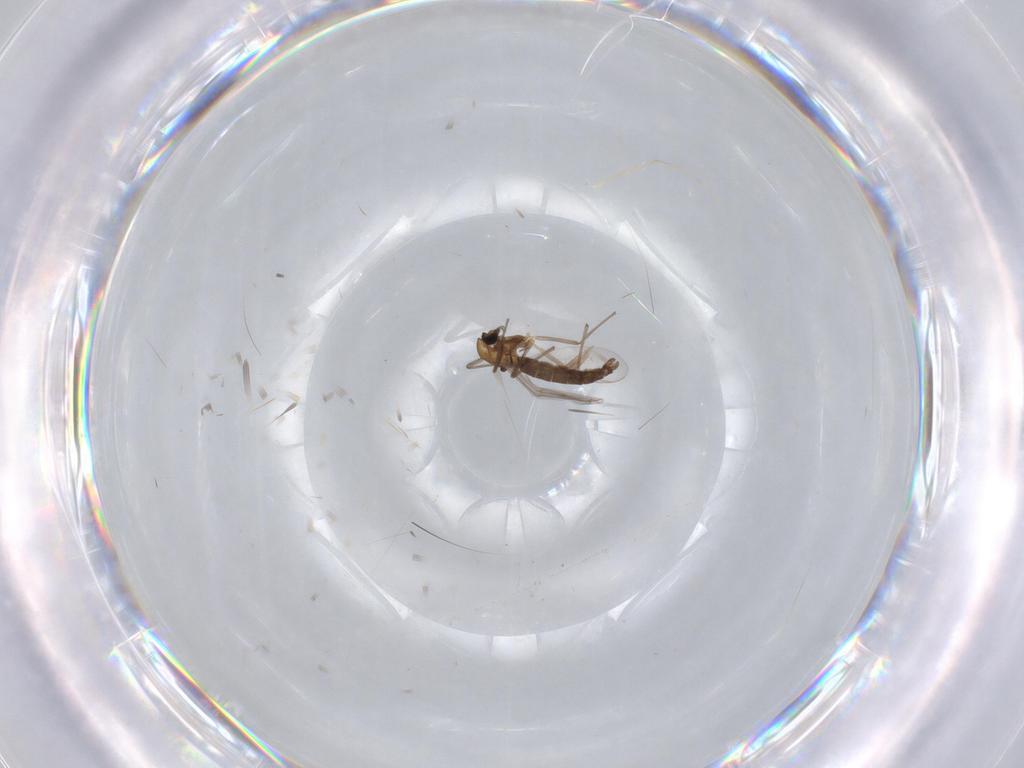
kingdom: Animalia
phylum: Arthropoda
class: Insecta
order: Diptera
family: Chironomidae
